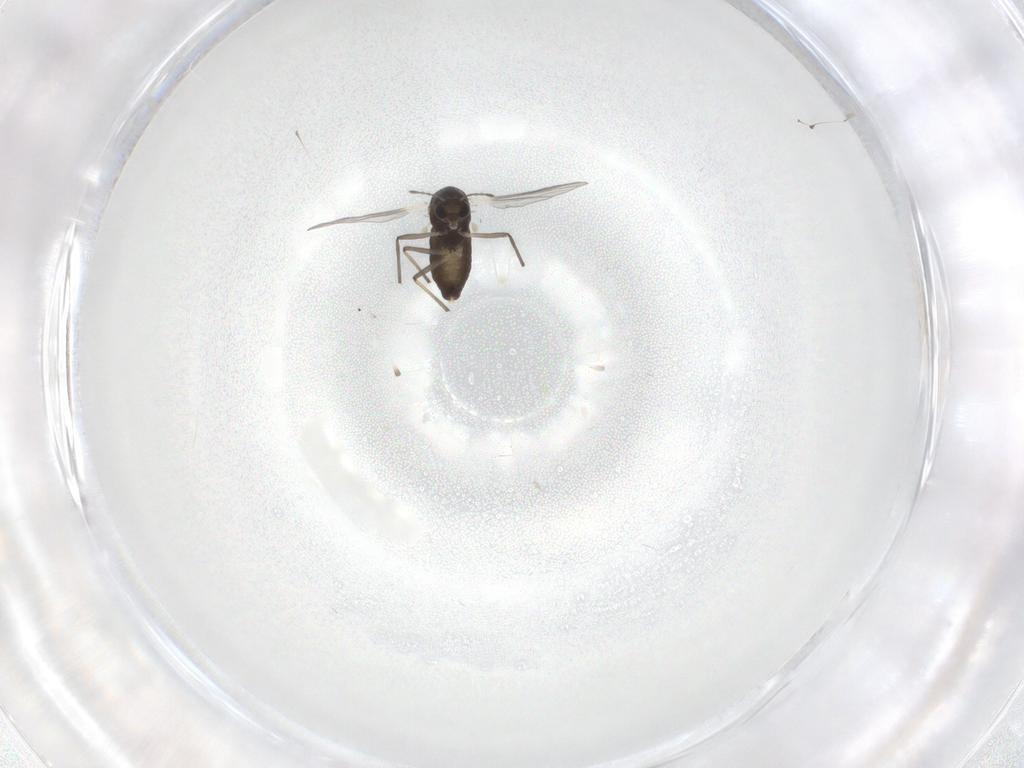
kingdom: Animalia
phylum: Arthropoda
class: Insecta
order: Diptera
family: Chironomidae
